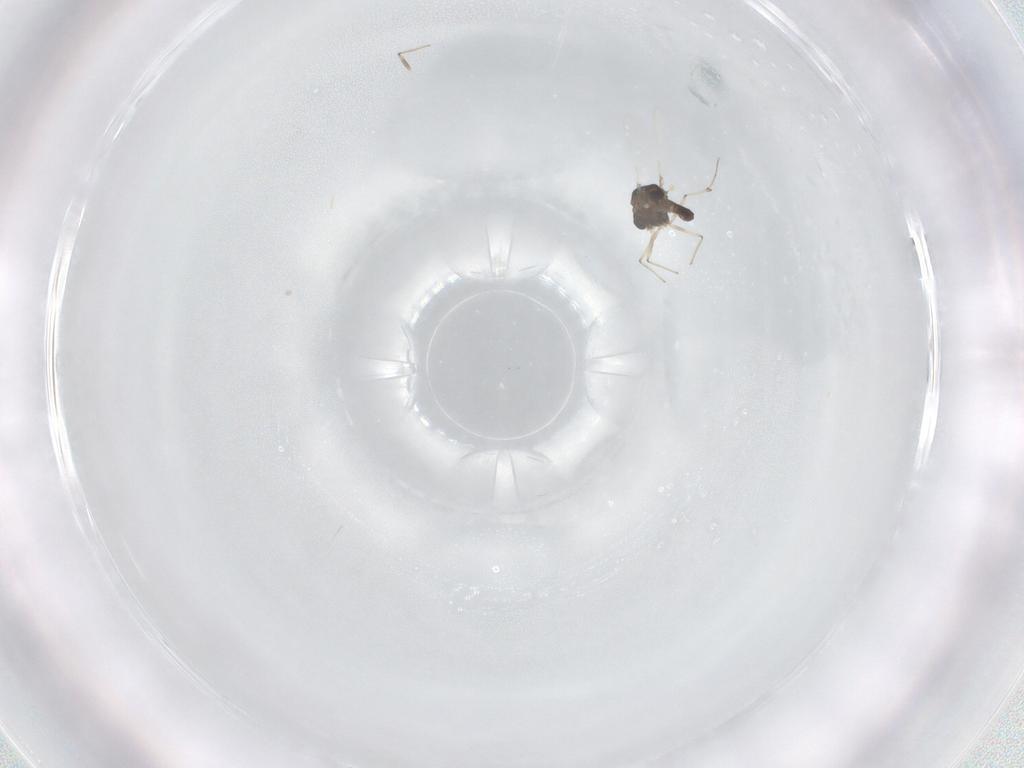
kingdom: Animalia
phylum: Arthropoda
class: Insecta
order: Diptera
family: Chironomidae
